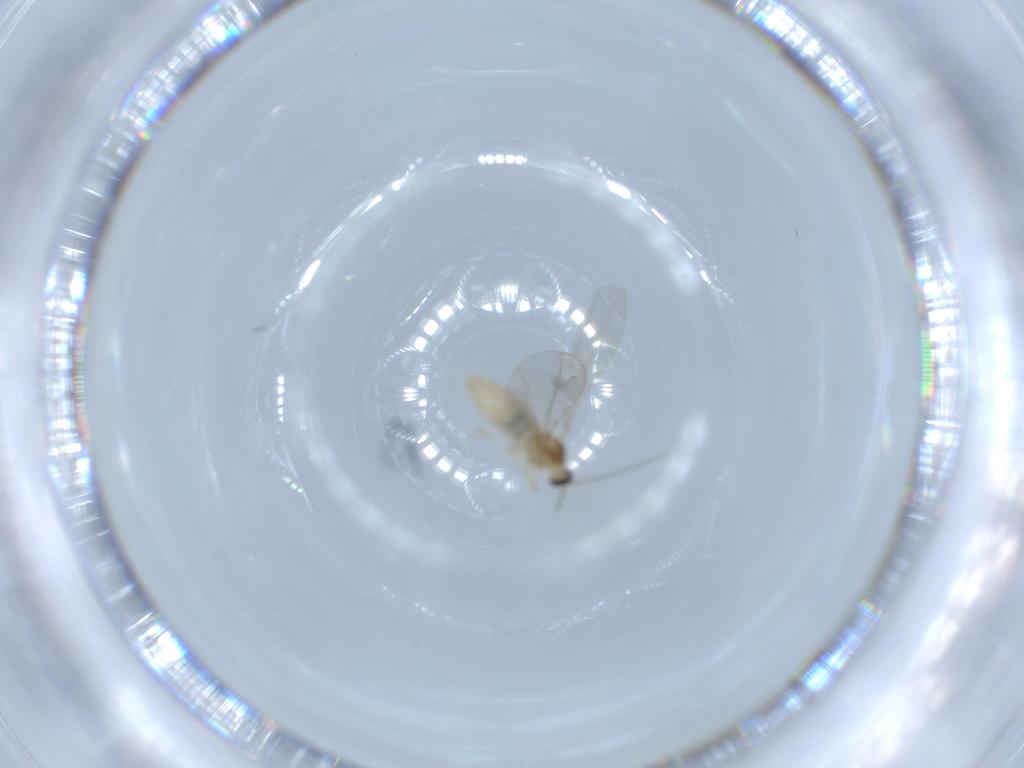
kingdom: Animalia
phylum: Arthropoda
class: Insecta
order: Diptera
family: Cecidomyiidae
